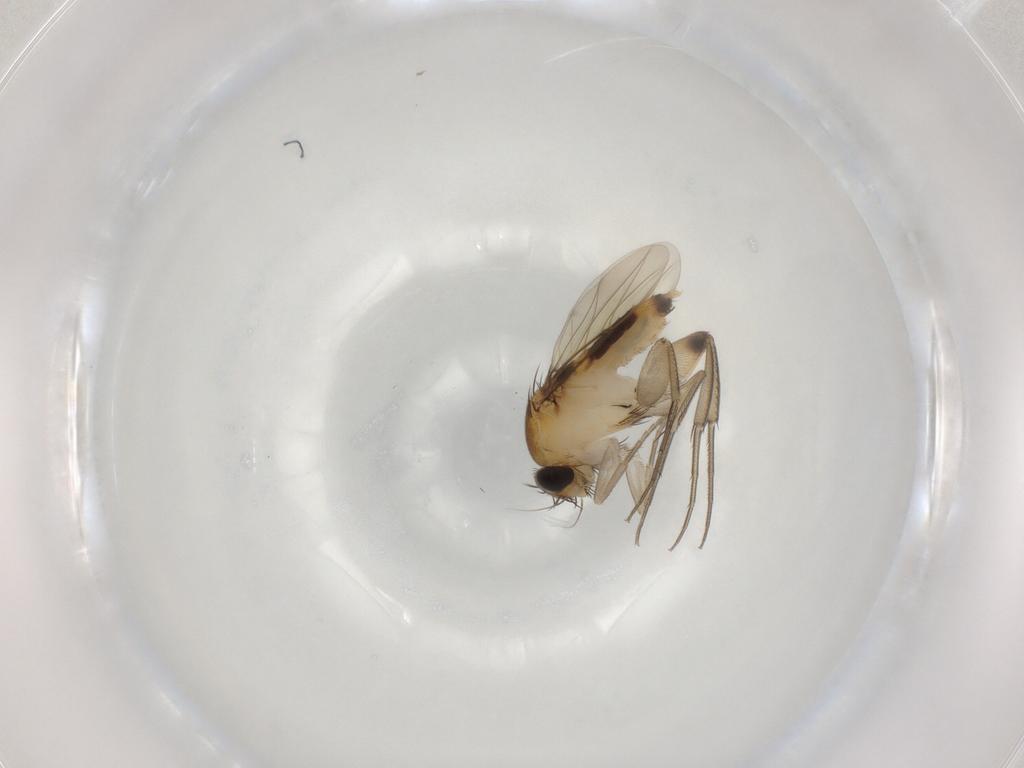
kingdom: Animalia
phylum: Arthropoda
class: Insecta
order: Diptera
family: Phoridae
